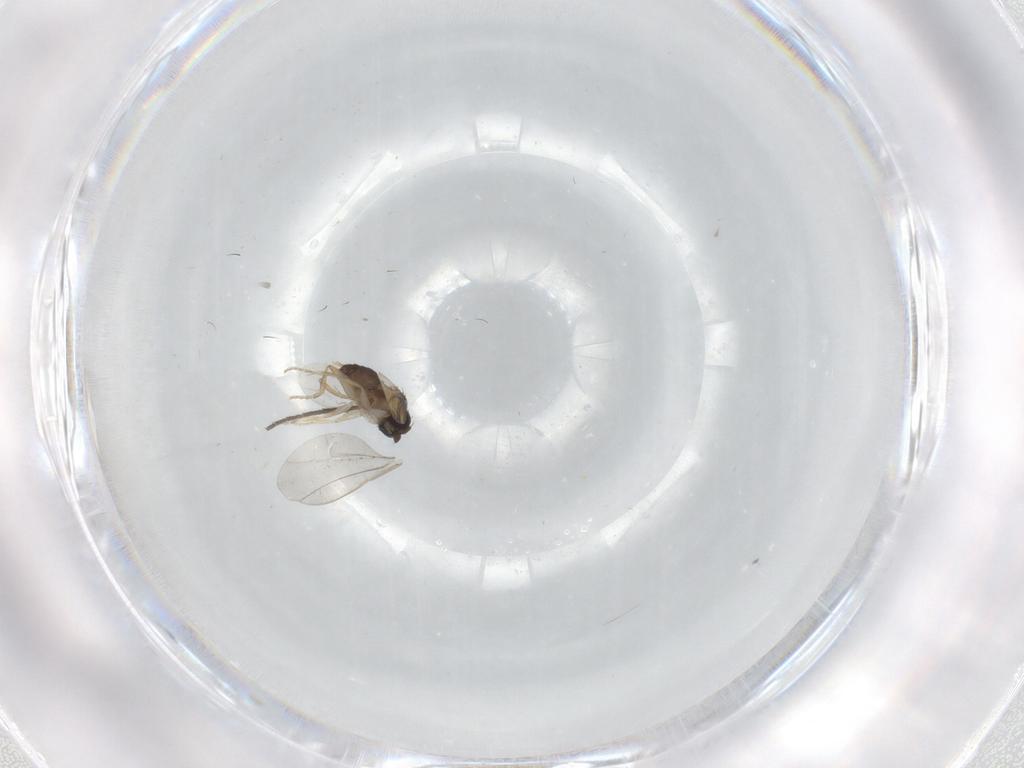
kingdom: Animalia
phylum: Arthropoda
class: Insecta
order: Diptera
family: Sciaridae
